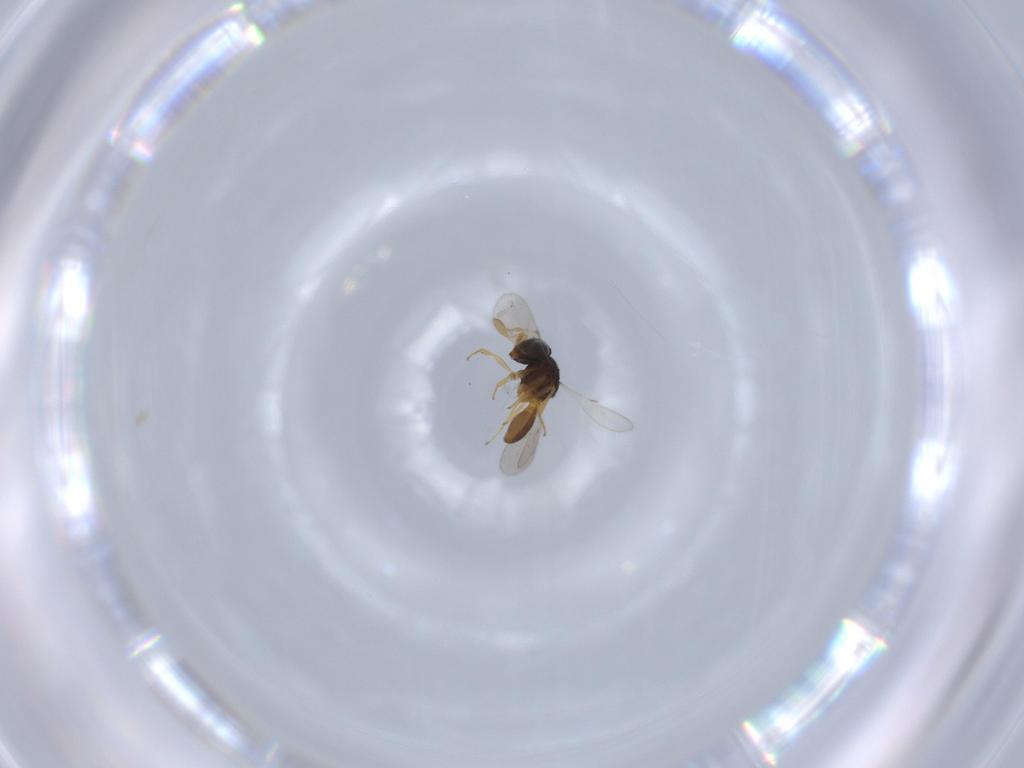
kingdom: Animalia
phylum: Arthropoda
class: Insecta
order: Hymenoptera
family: Scelionidae
